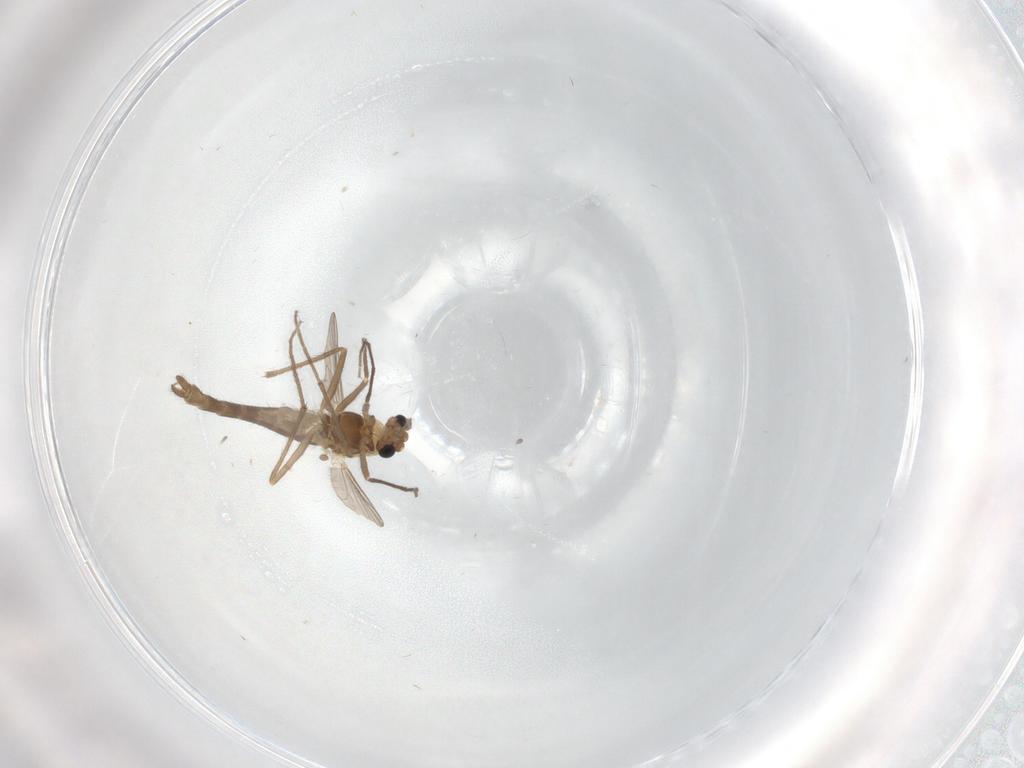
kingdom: Animalia
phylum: Arthropoda
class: Insecta
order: Diptera
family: Chironomidae
